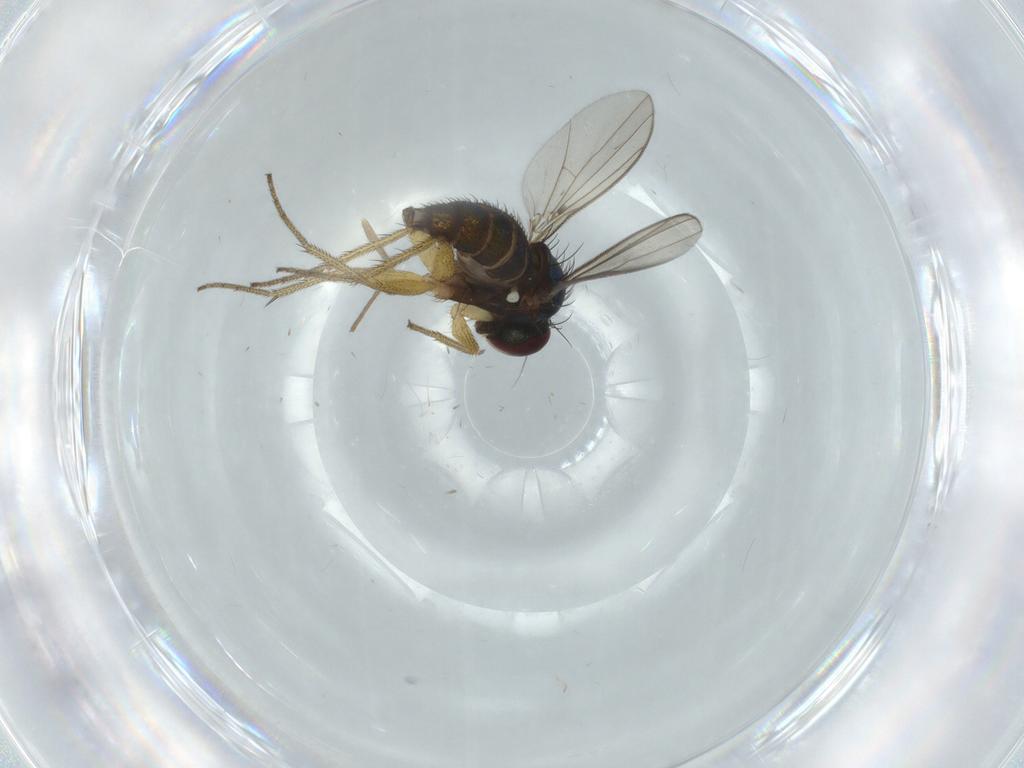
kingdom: Animalia
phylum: Arthropoda
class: Insecta
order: Diptera
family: Dolichopodidae
